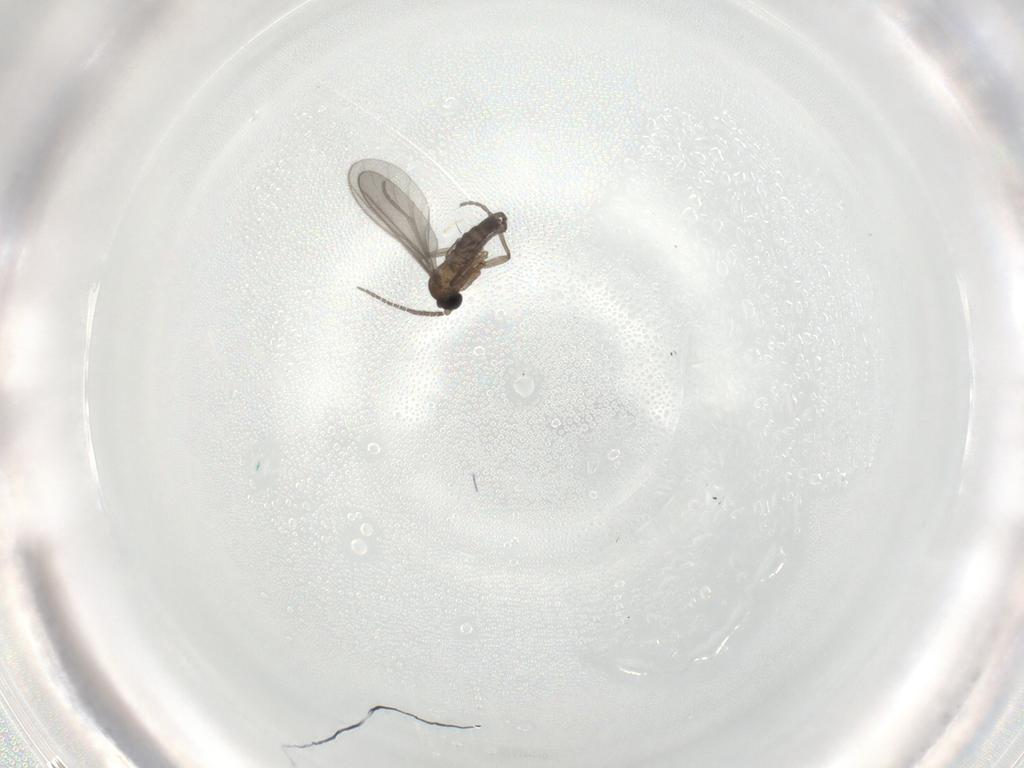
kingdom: Animalia
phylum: Arthropoda
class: Insecta
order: Diptera
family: Sciaridae
